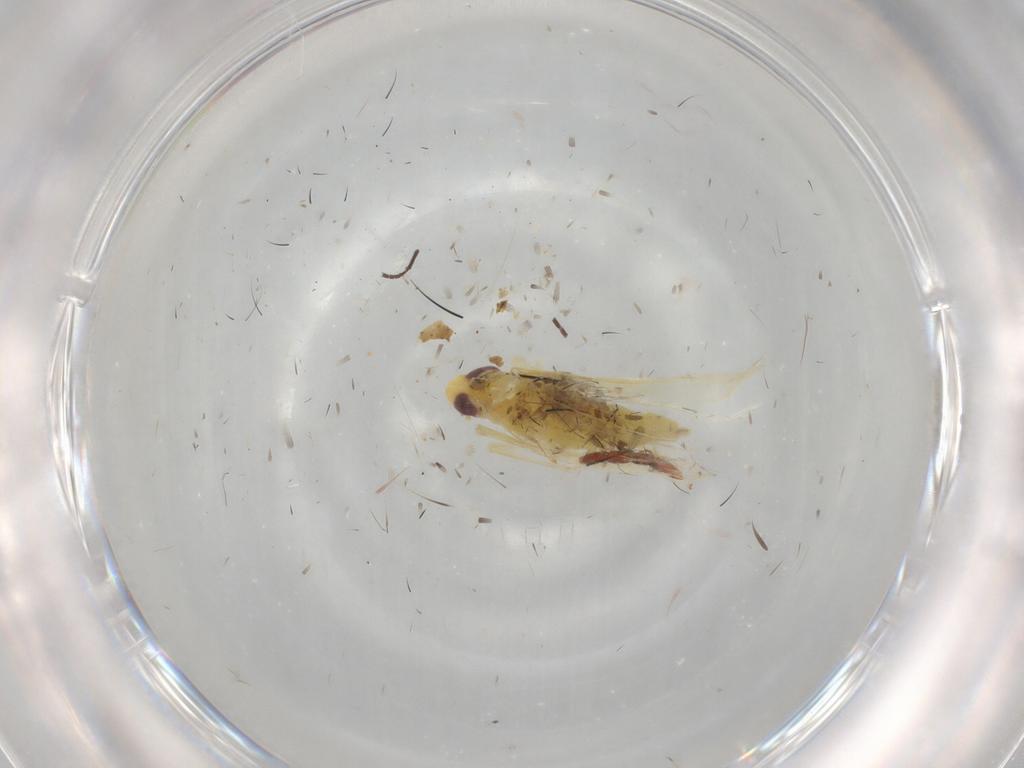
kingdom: Animalia
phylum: Arthropoda
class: Insecta
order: Hemiptera
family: Cicadellidae
